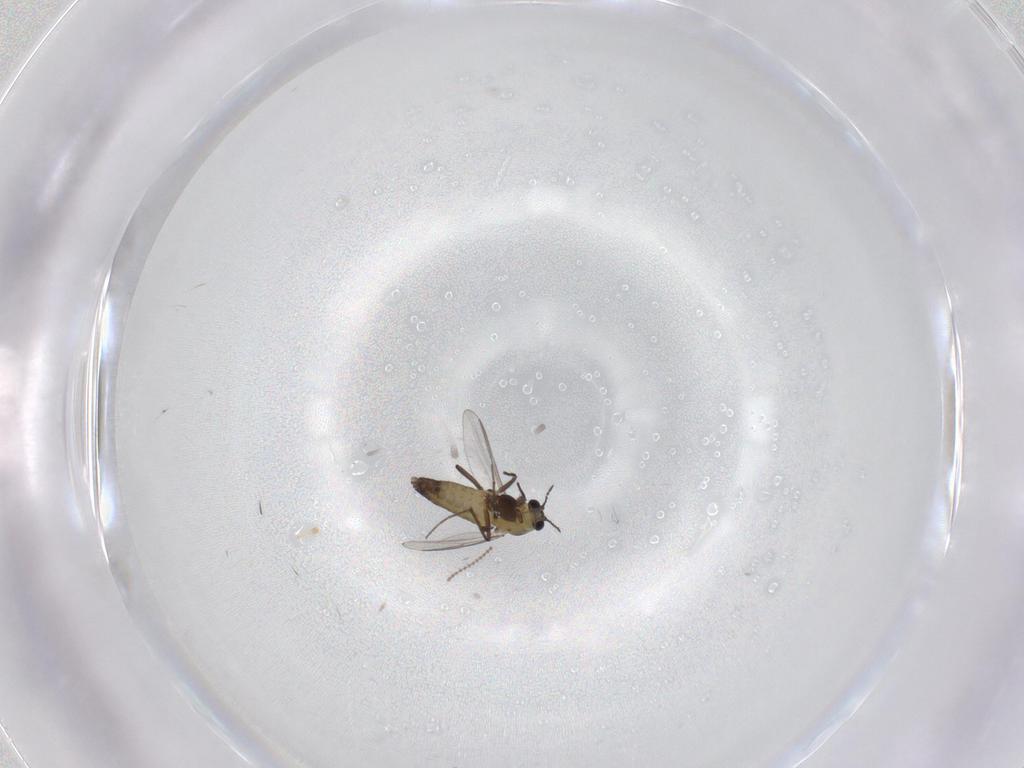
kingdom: Animalia
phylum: Arthropoda
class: Insecta
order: Diptera
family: Chironomidae
